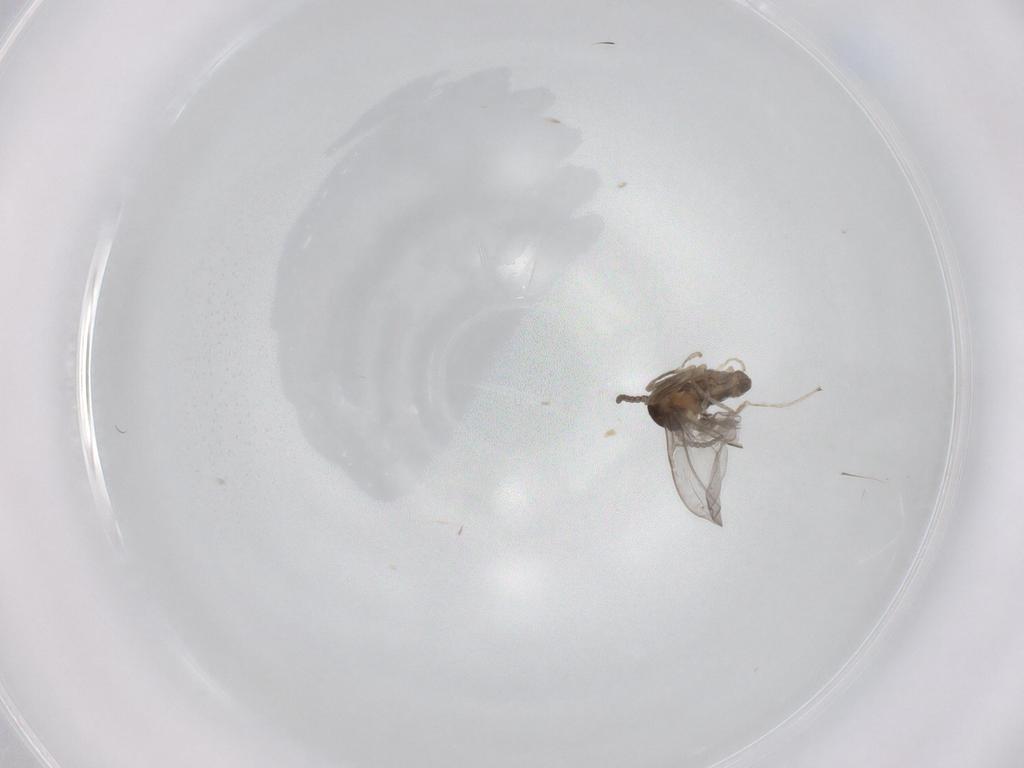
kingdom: Animalia
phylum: Arthropoda
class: Insecta
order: Diptera
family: Cecidomyiidae
